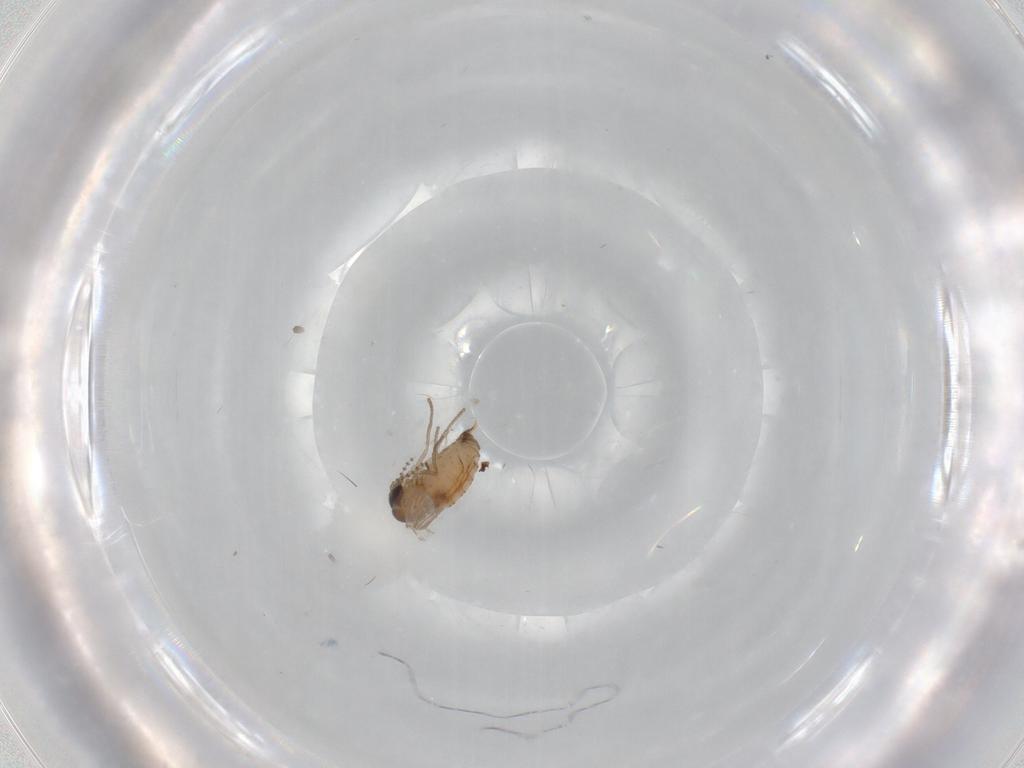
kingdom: Animalia
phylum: Arthropoda
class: Insecta
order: Diptera
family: Psychodidae
